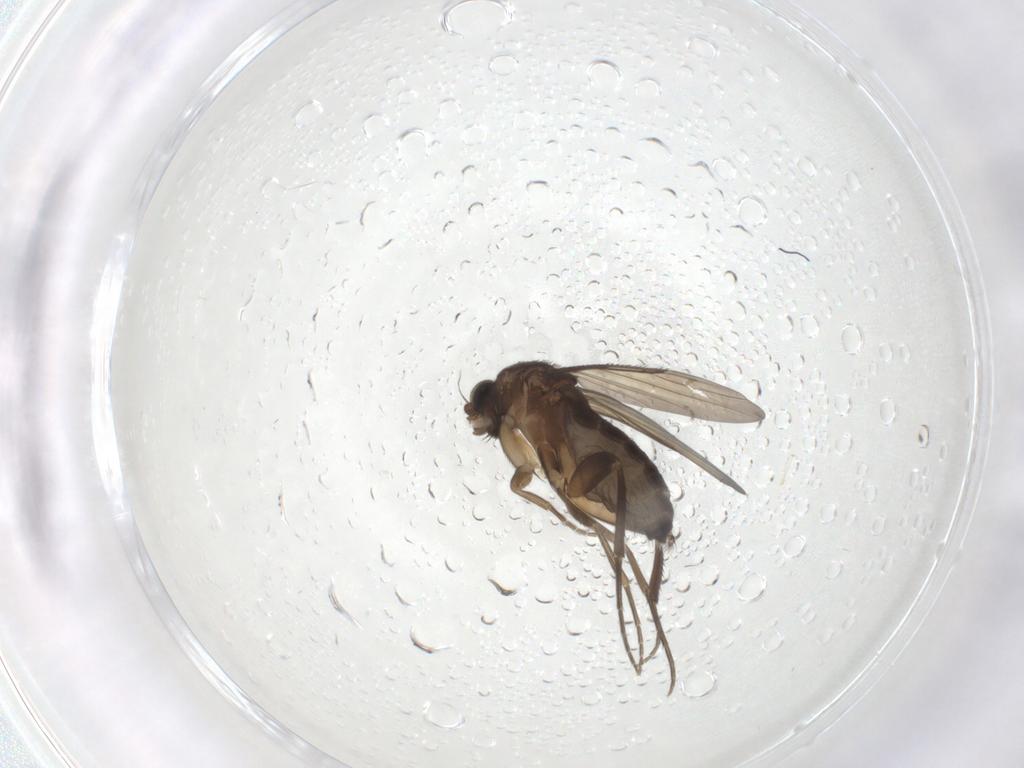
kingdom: Animalia
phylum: Arthropoda
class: Insecta
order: Diptera
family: Phoridae
